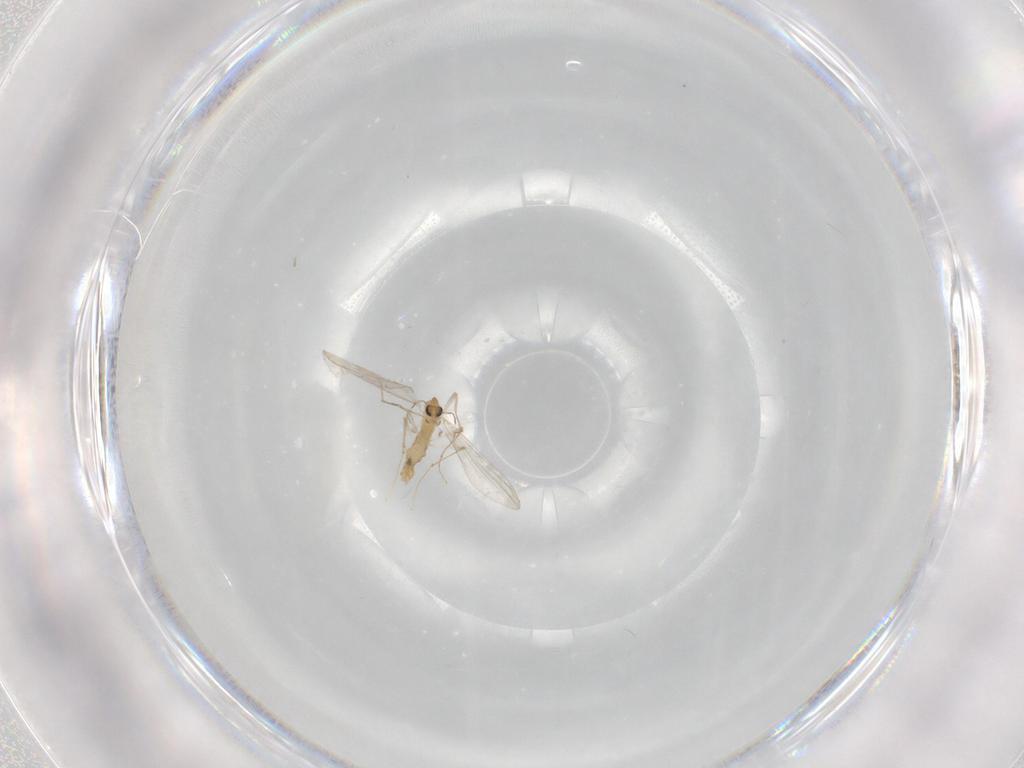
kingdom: Animalia
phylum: Arthropoda
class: Insecta
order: Diptera
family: Chironomidae
